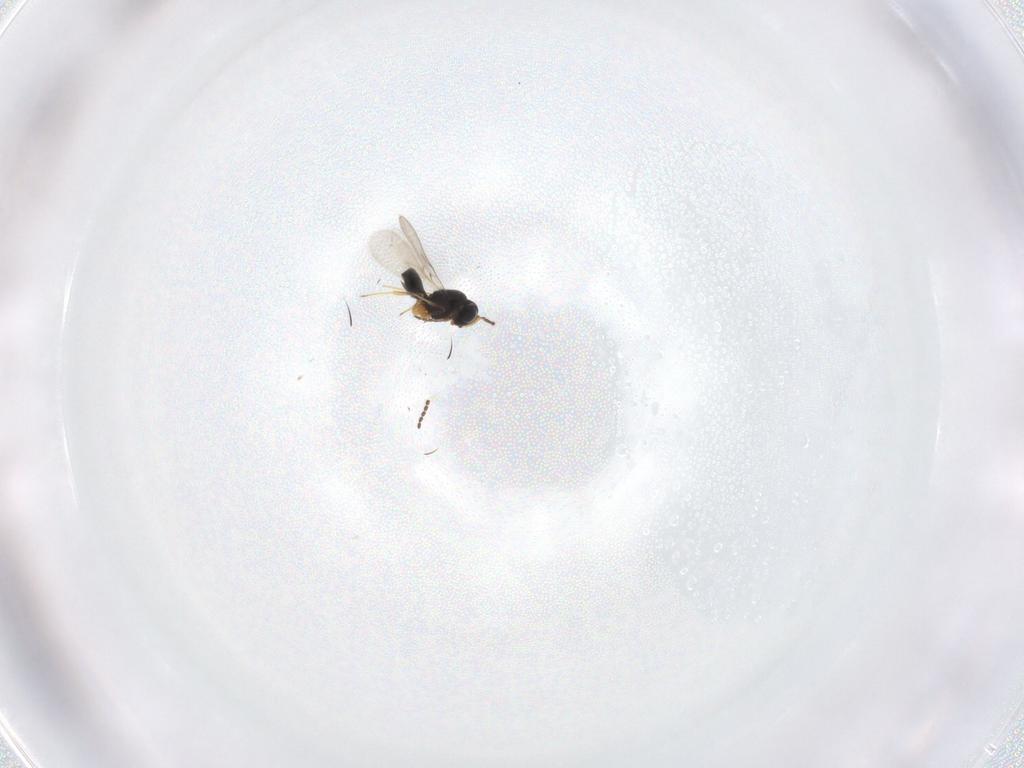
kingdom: Animalia
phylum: Arthropoda
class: Insecta
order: Hymenoptera
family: Scelionidae
